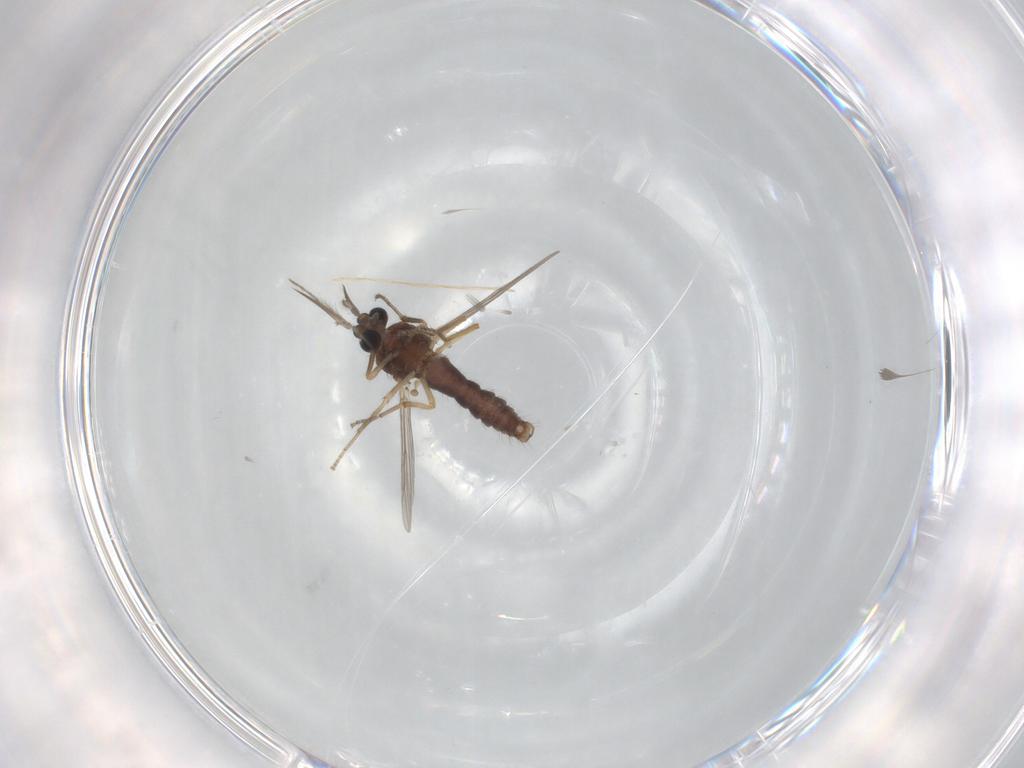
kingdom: Animalia
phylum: Arthropoda
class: Insecta
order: Diptera
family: Ceratopogonidae
